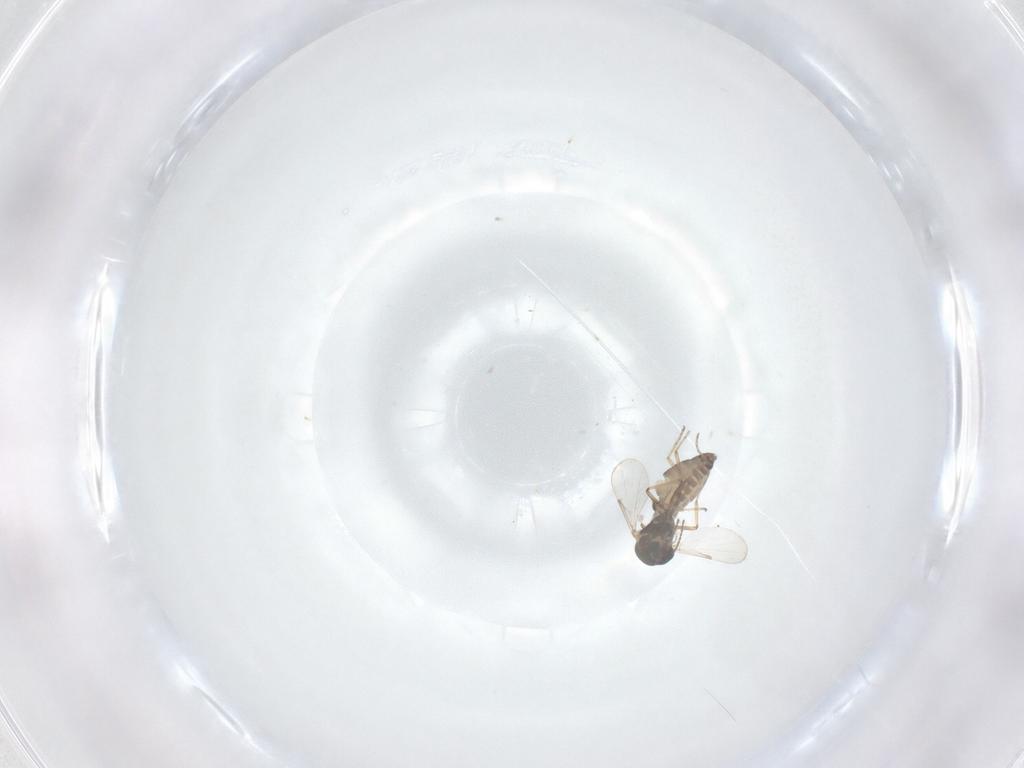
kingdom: Animalia
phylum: Arthropoda
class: Insecta
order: Diptera
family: Ceratopogonidae
